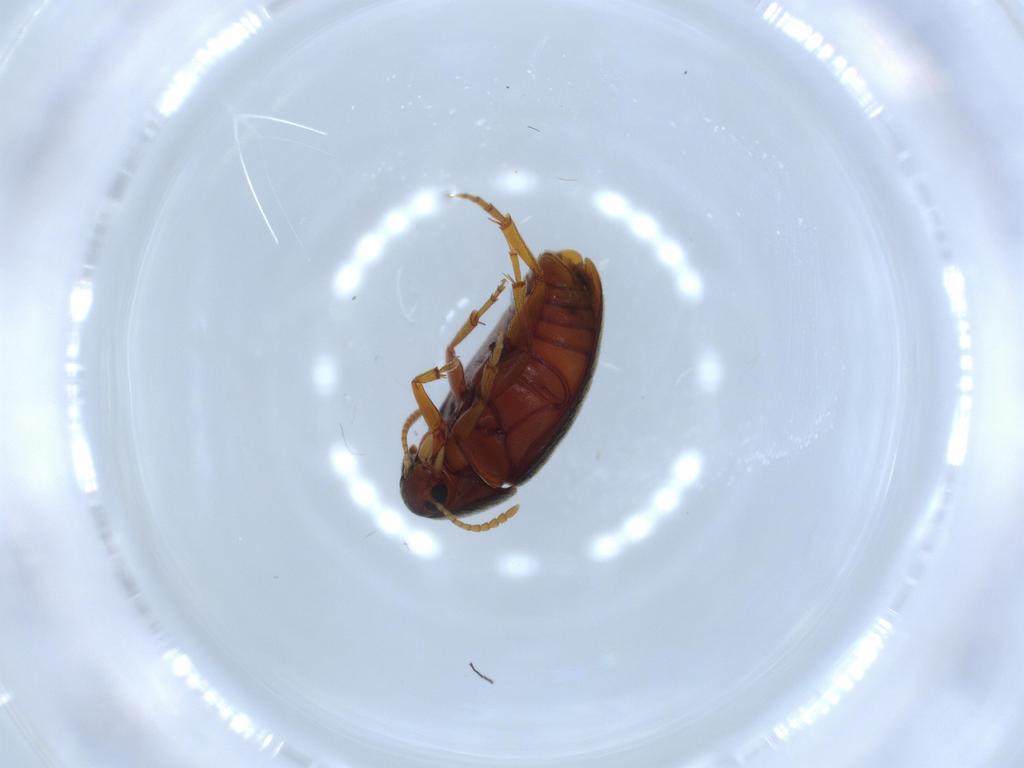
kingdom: Animalia
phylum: Arthropoda
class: Insecta
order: Coleoptera
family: Scraptiidae
